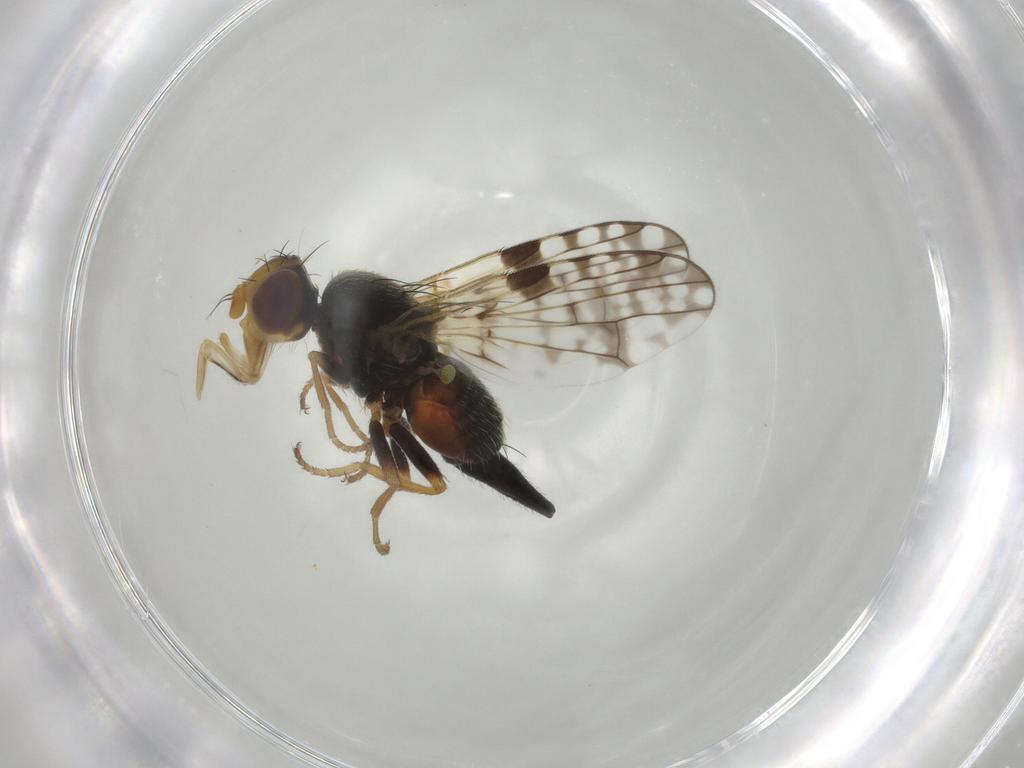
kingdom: Animalia
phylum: Arthropoda
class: Insecta
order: Diptera
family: Tephritidae
